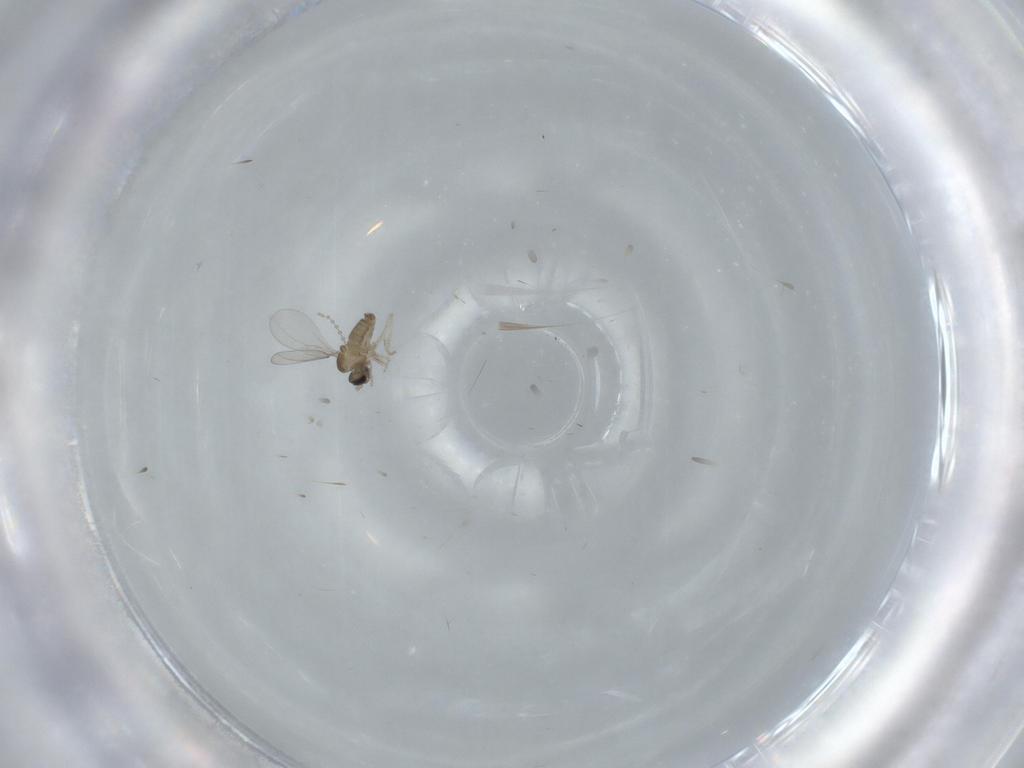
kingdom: Animalia
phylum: Arthropoda
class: Insecta
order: Diptera
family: Cecidomyiidae
